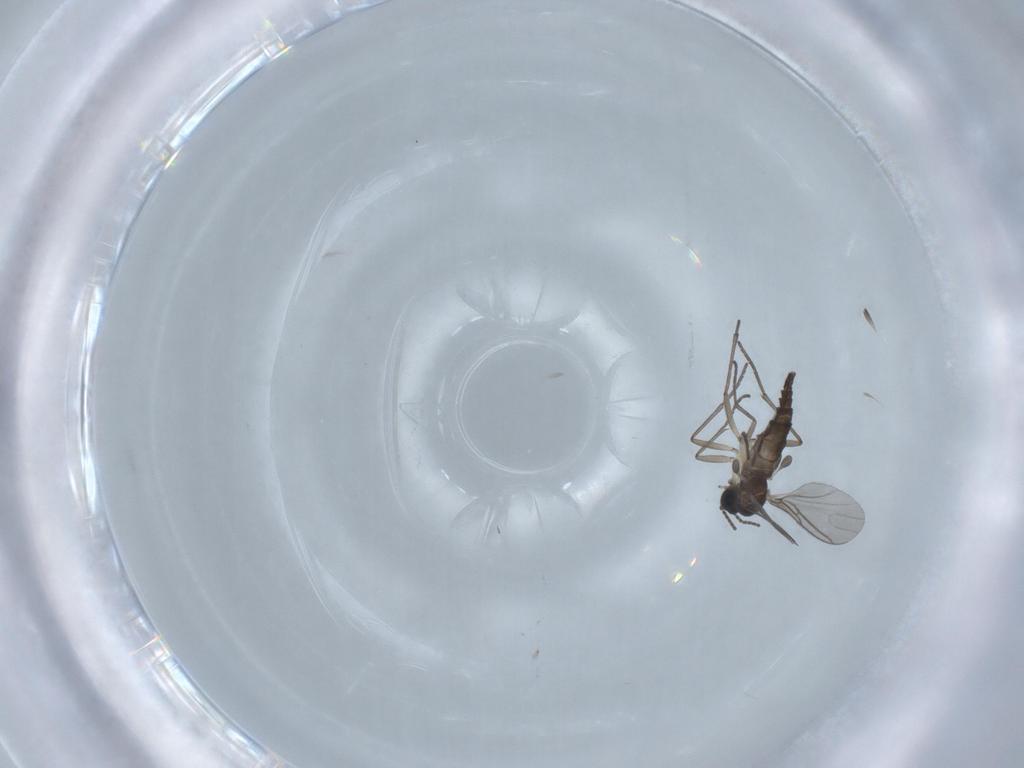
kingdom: Animalia
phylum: Arthropoda
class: Insecta
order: Diptera
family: Sciaridae
